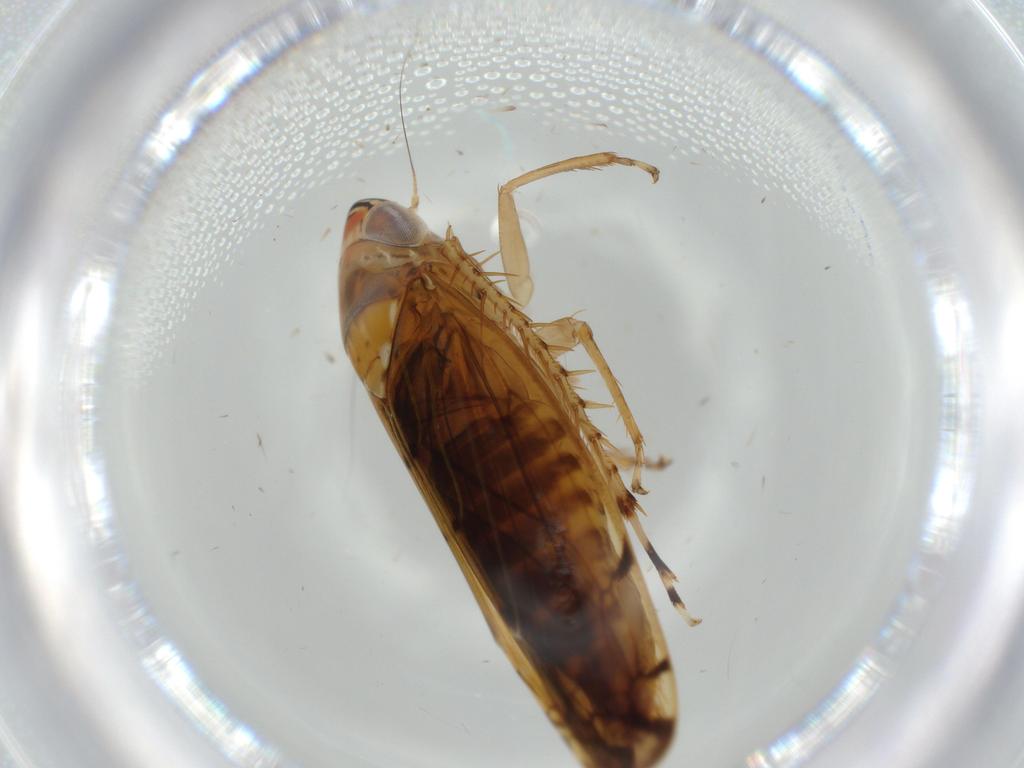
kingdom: Animalia
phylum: Arthropoda
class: Insecta
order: Hemiptera
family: Cicadellidae
